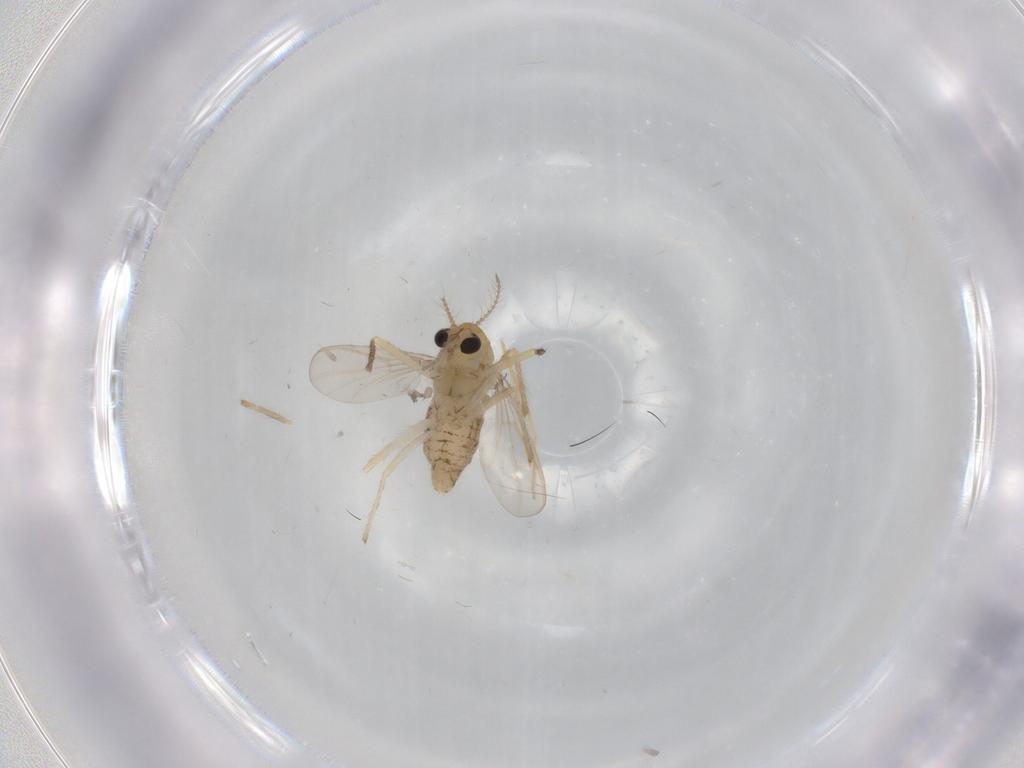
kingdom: Animalia
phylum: Arthropoda
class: Insecta
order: Diptera
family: Chironomidae
